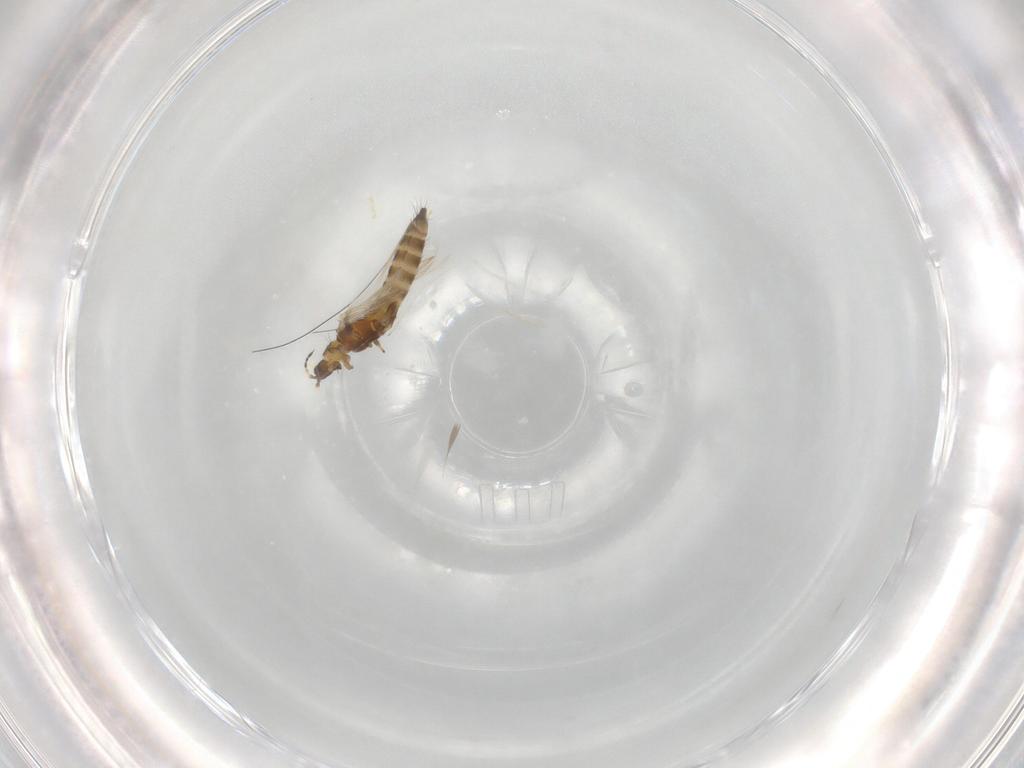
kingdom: Animalia
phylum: Arthropoda
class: Insecta
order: Thysanoptera
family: Thripidae
